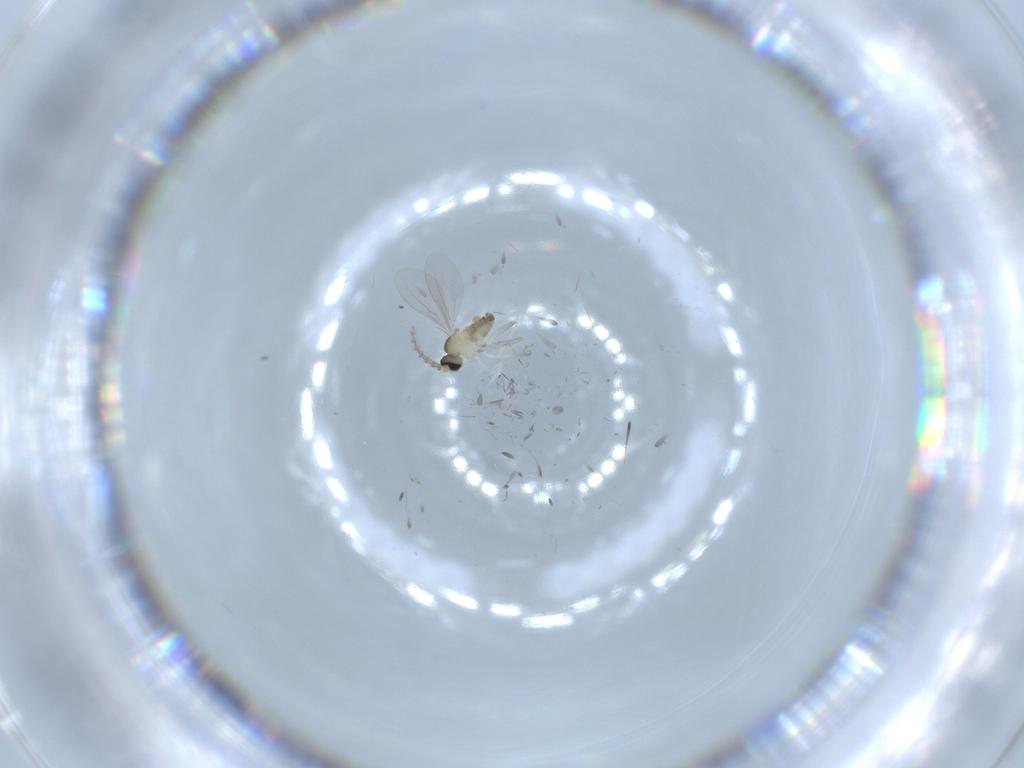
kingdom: Animalia
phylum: Arthropoda
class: Insecta
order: Diptera
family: Cecidomyiidae
